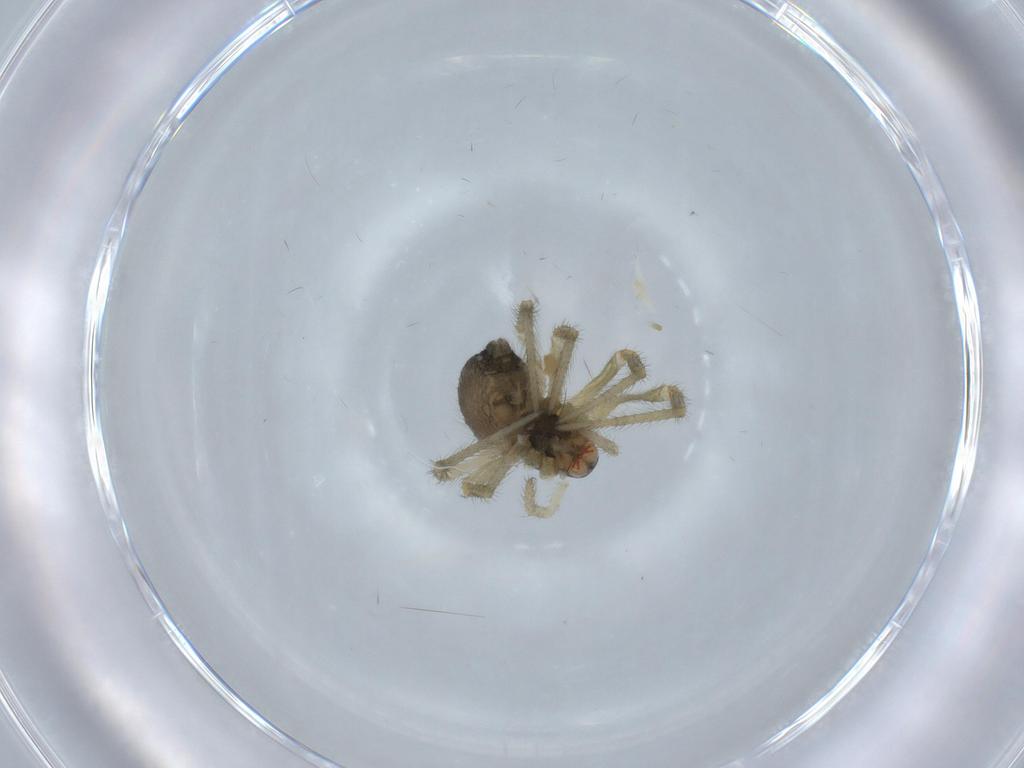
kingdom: Animalia
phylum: Arthropoda
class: Arachnida
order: Araneae
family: Nesticidae
